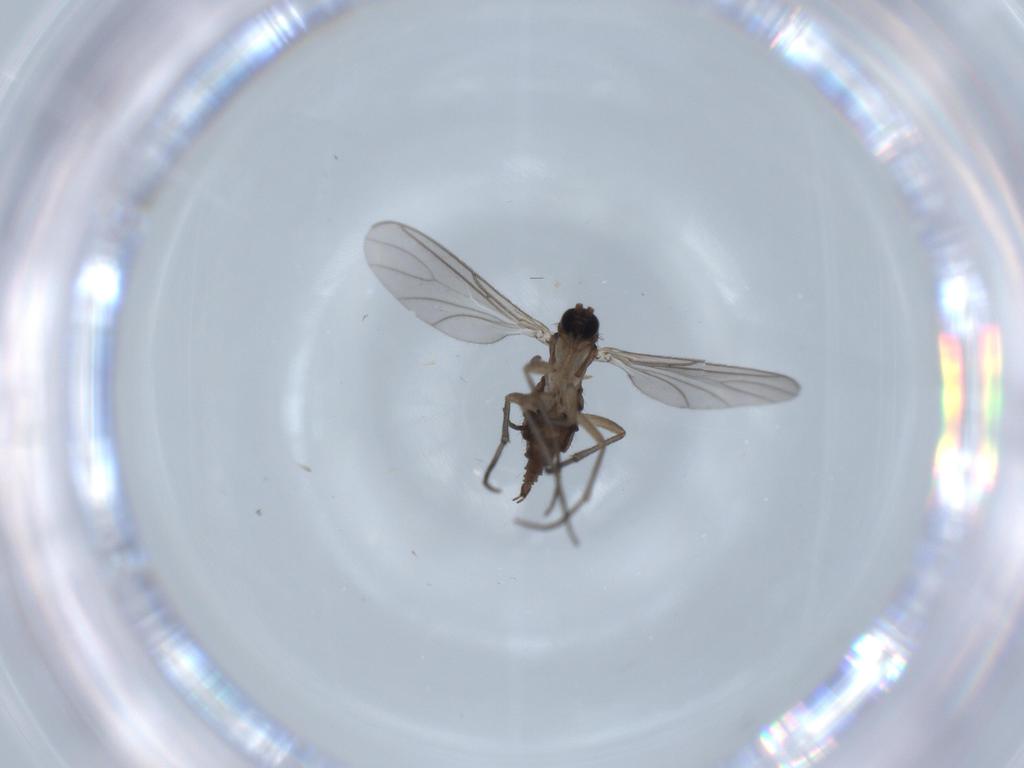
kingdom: Animalia
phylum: Arthropoda
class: Insecta
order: Diptera
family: Sciaridae
